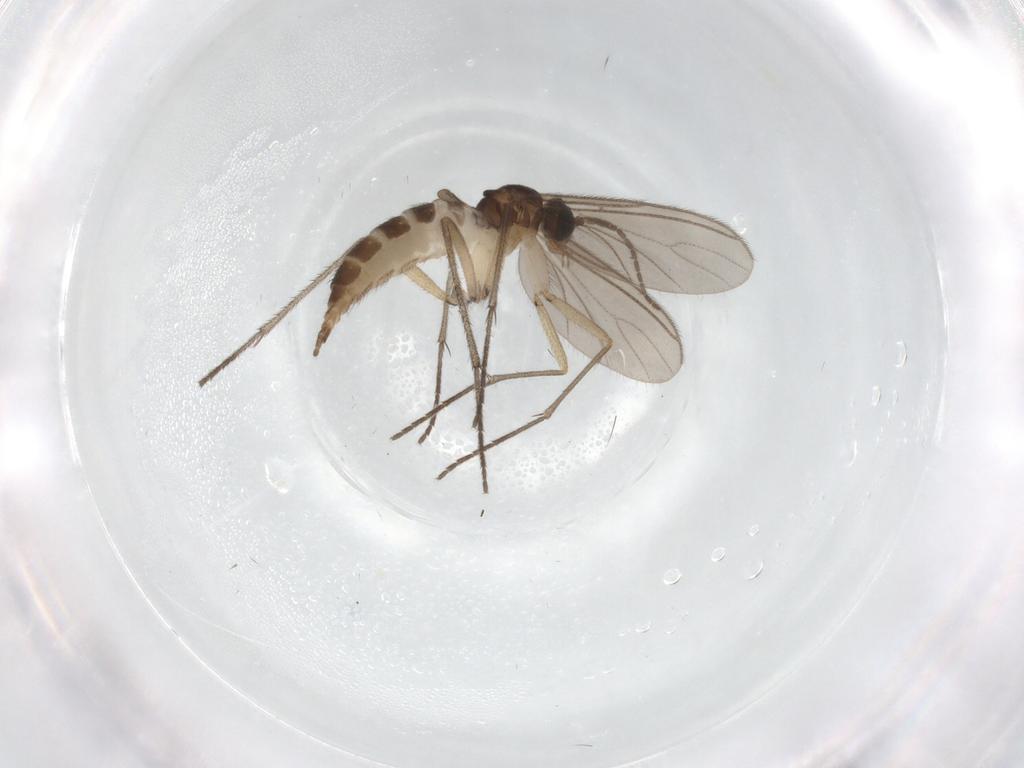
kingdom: Animalia
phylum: Arthropoda
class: Insecta
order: Diptera
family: Sciaridae
